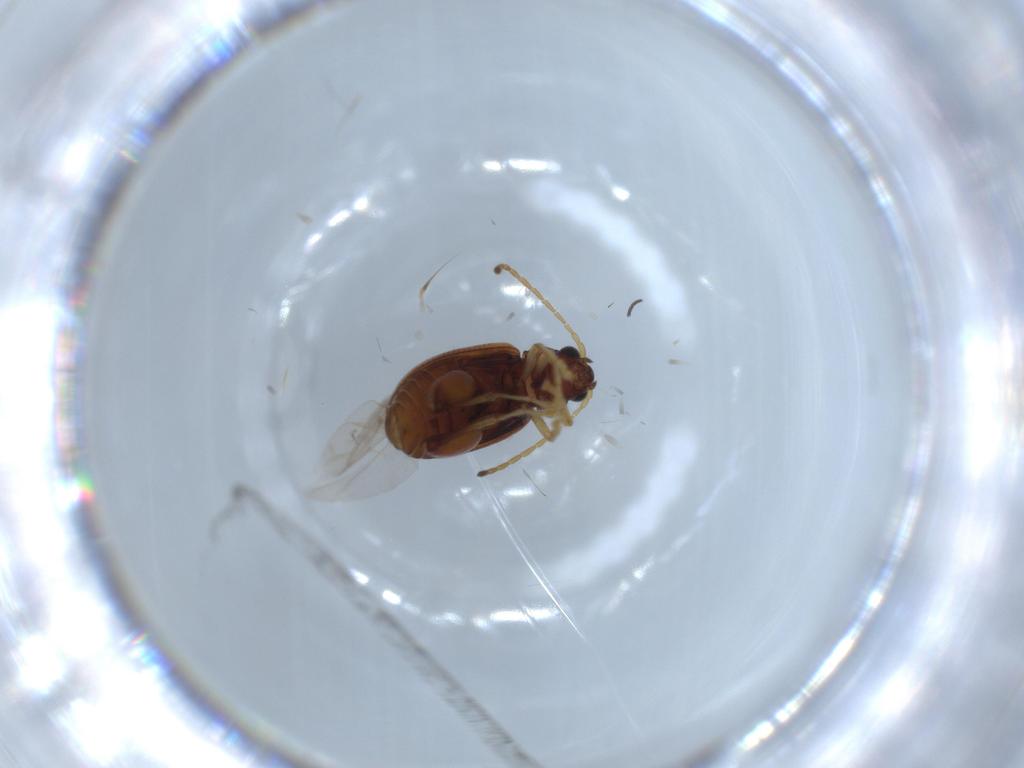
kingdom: Animalia
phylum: Arthropoda
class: Insecta
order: Coleoptera
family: Chrysomelidae
